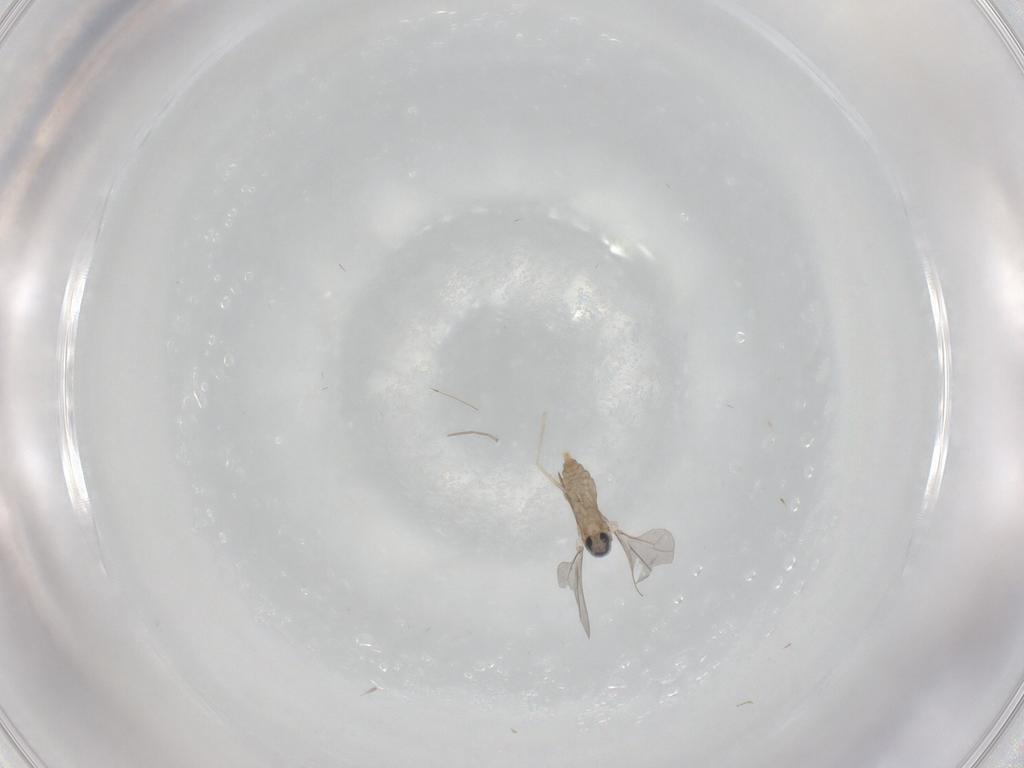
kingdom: Animalia
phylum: Arthropoda
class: Insecta
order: Diptera
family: Cecidomyiidae
